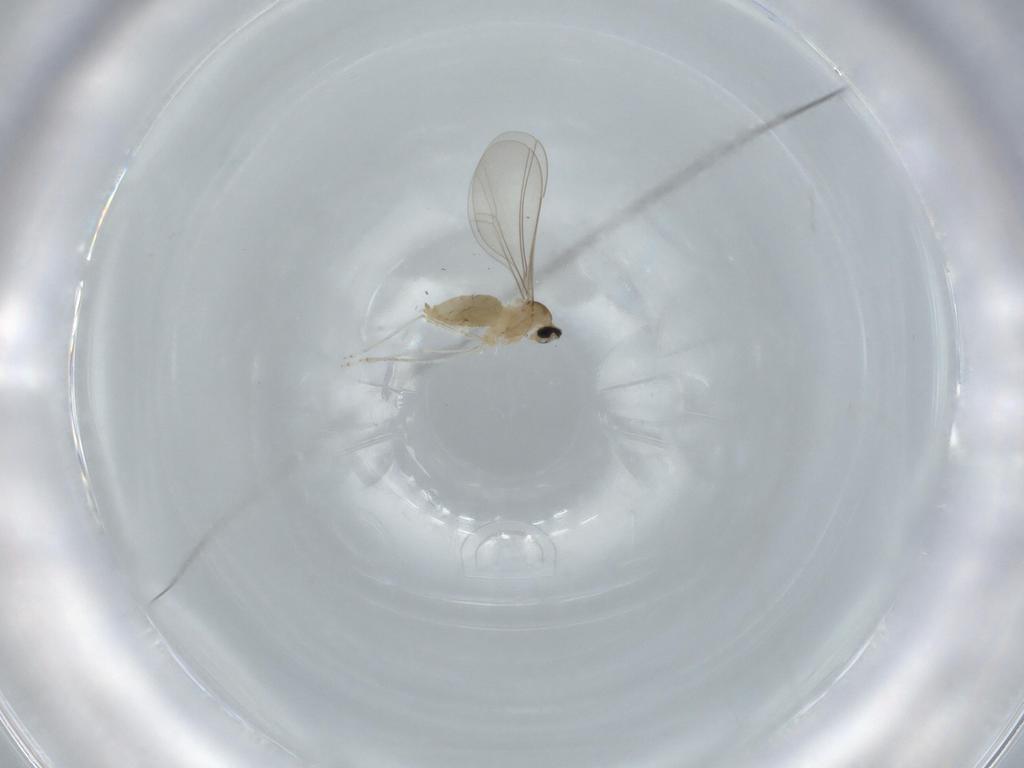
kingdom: Animalia
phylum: Arthropoda
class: Insecta
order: Diptera
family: Cecidomyiidae
